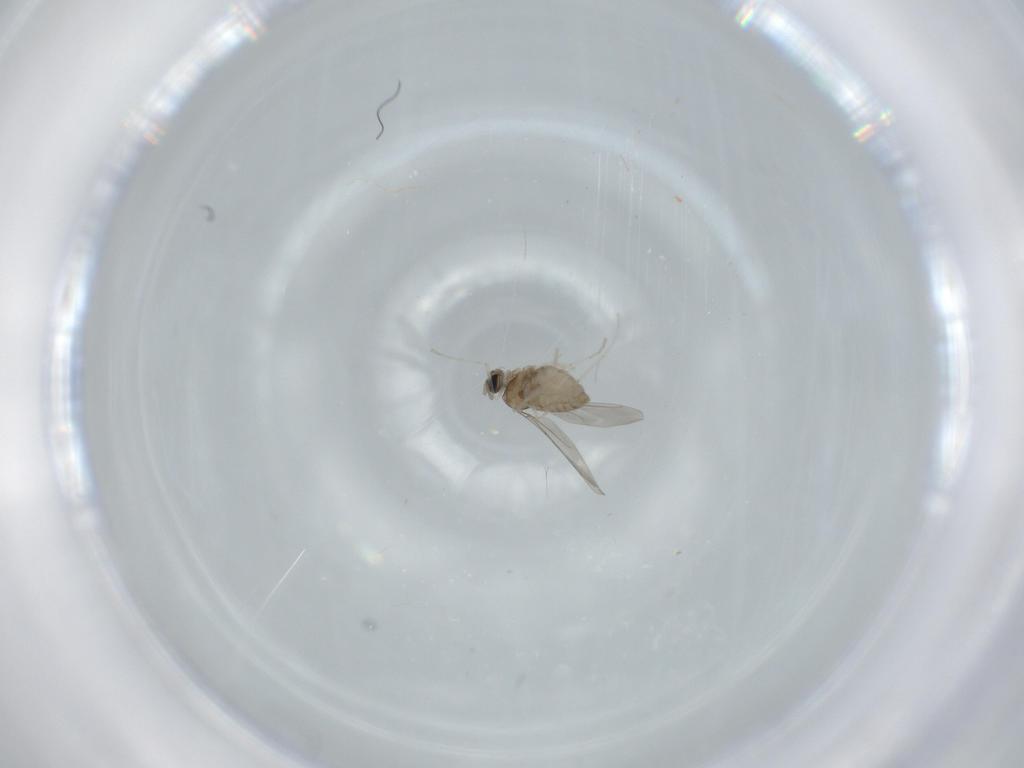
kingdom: Animalia
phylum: Arthropoda
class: Insecta
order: Diptera
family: Cecidomyiidae
